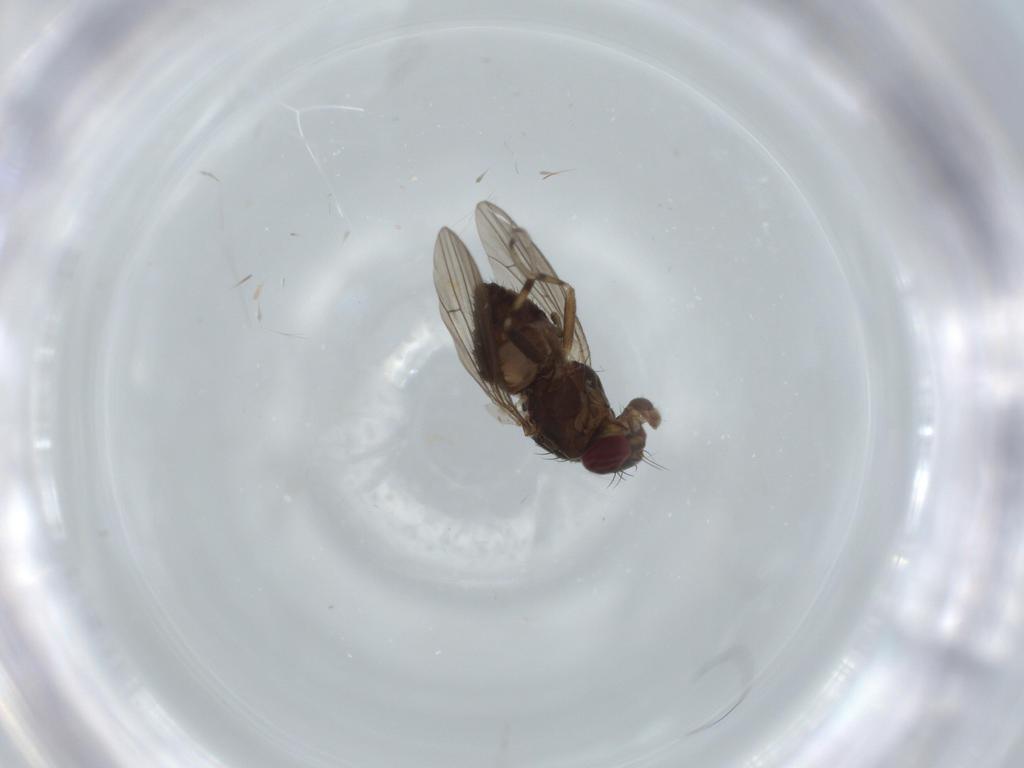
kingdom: Animalia
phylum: Arthropoda
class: Insecta
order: Diptera
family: Heleomyzidae
